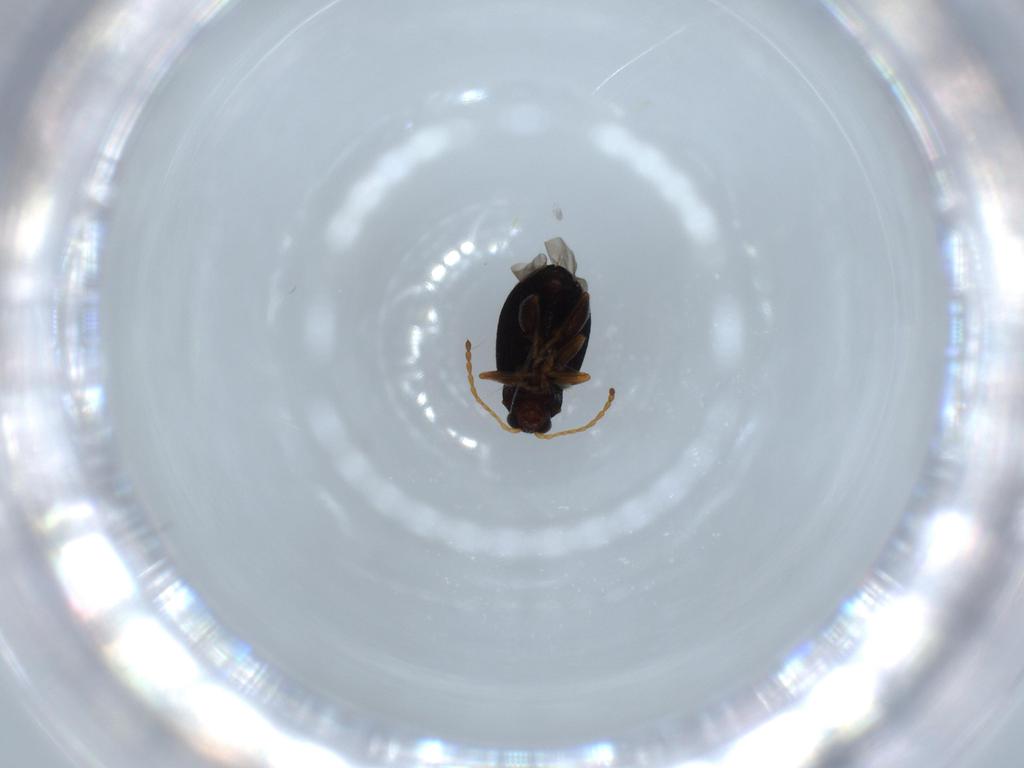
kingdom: Animalia
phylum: Arthropoda
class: Insecta
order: Coleoptera
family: Chrysomelidae
